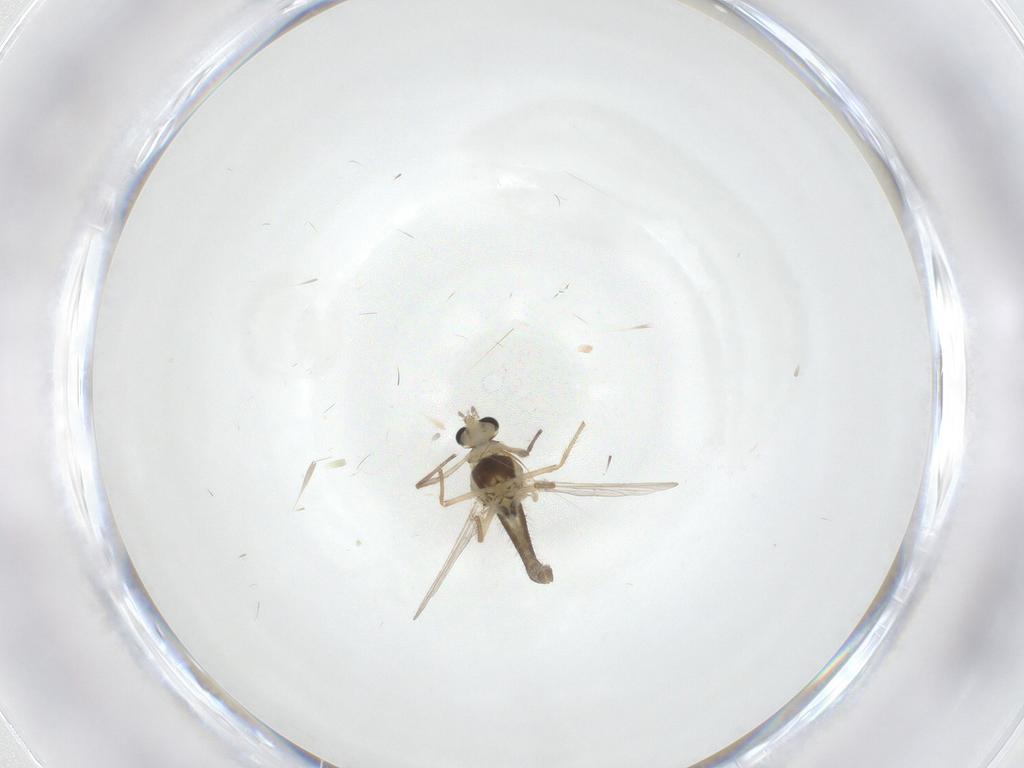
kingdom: Animalia
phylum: Arthropoda
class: Insecta
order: Diptera
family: Chironomidae
